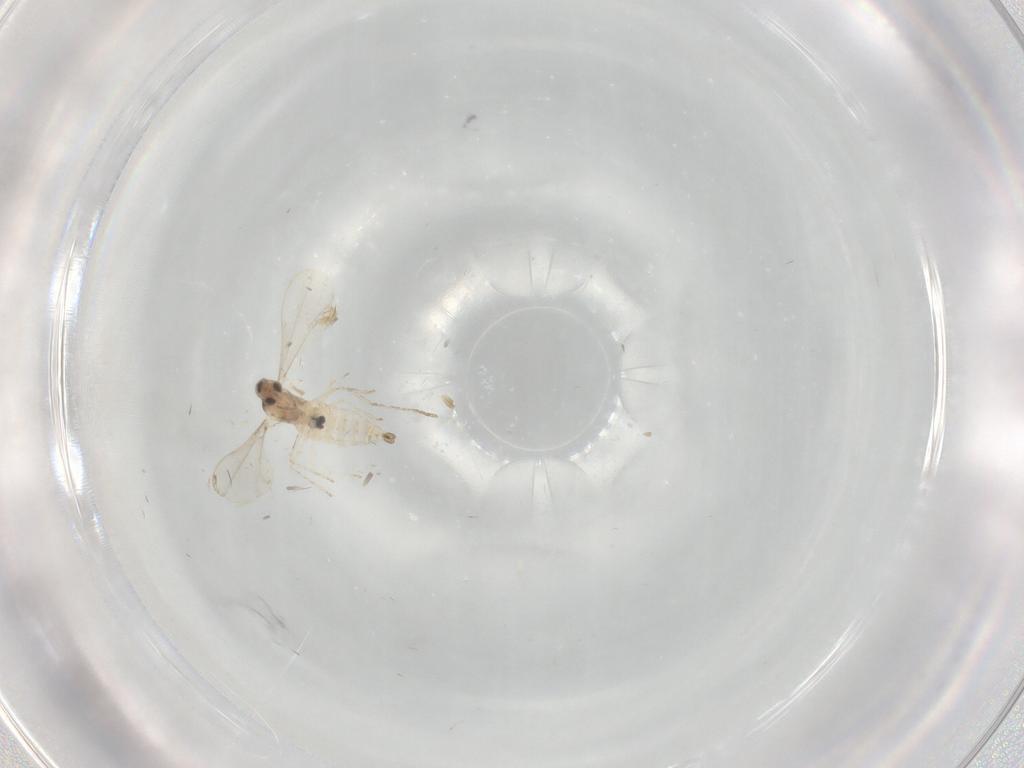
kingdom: Animalia
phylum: Arthropoda
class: Insecta
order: Diptera
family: Cecidomyiidae
